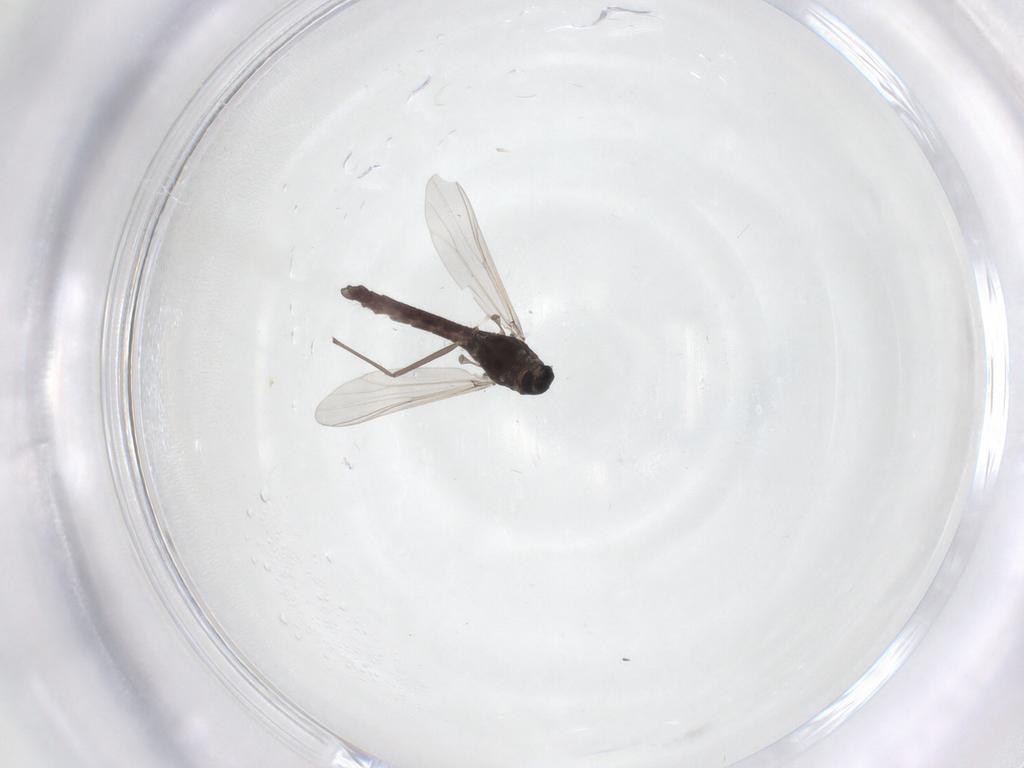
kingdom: Animalia
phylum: Arthropoda
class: Insecta
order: Diptera
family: Chironomidae
